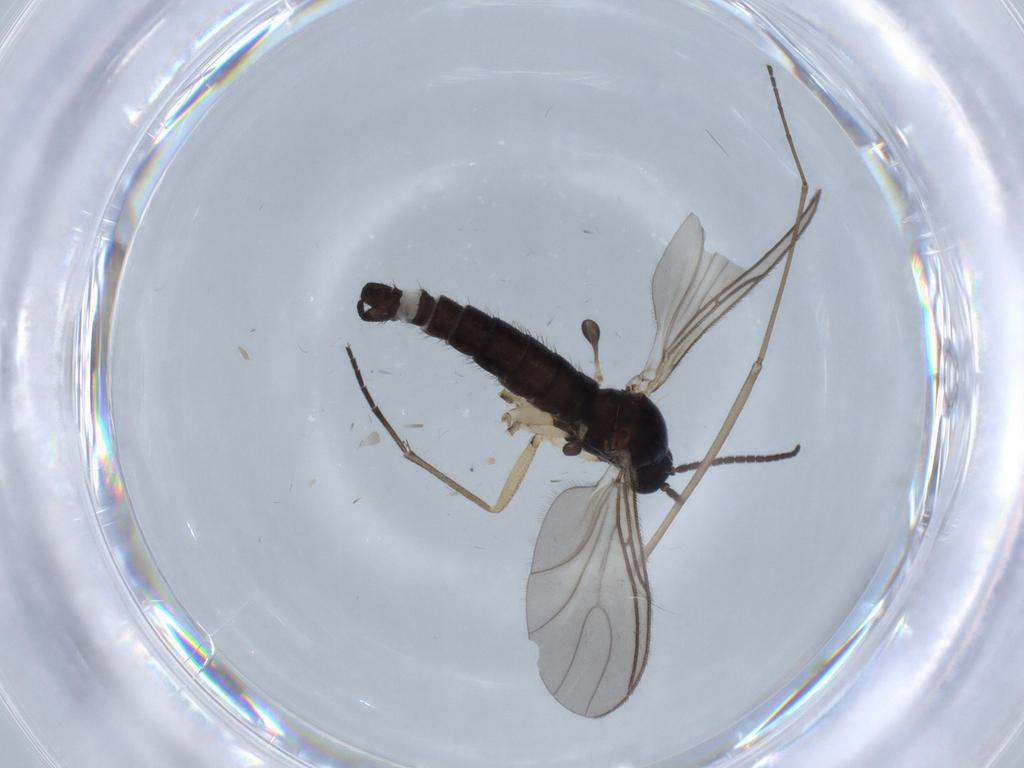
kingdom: Animalia
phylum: Arthropoda
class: Insecta
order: Diptera
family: Sciaridae
